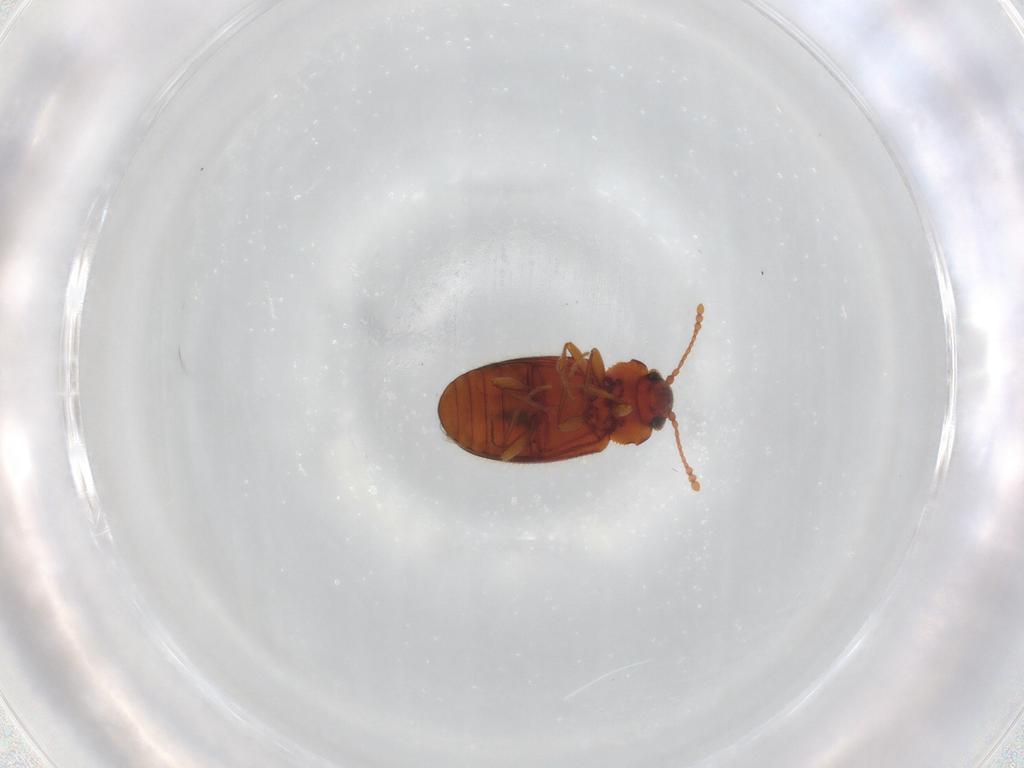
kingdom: Animalia
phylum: Arthropoda
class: Insecta
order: Coleoptera
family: Cryptophagidae
